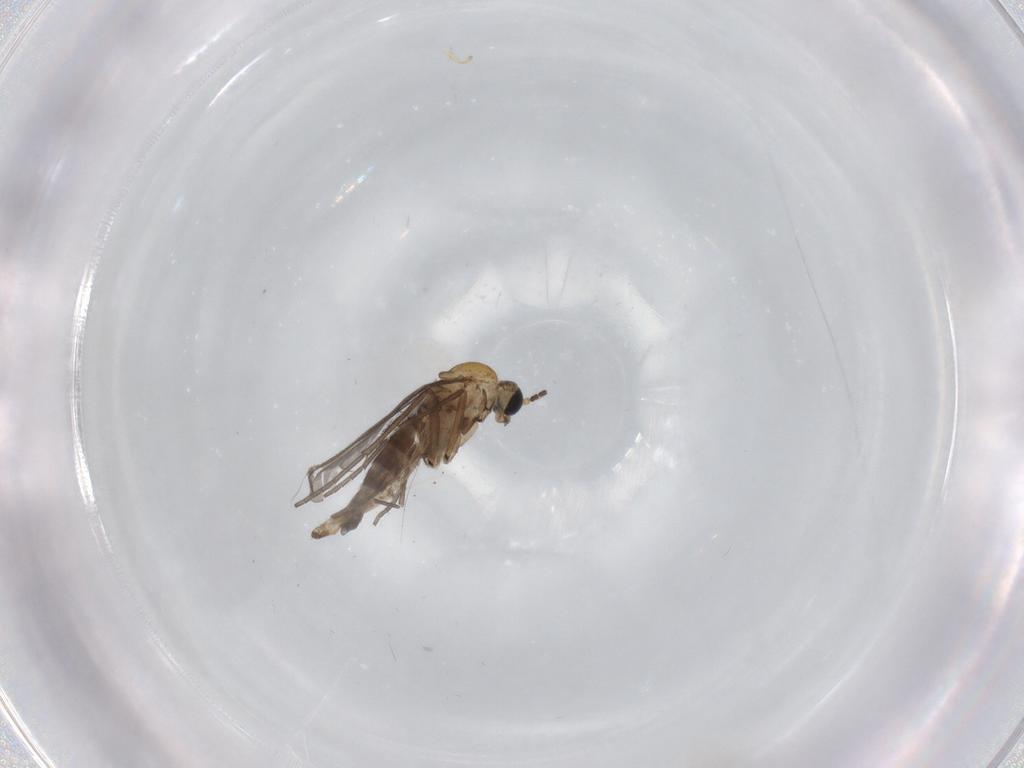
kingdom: Animalia
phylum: Arthropoda
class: Insecta
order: Diptera
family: Sciaridae
